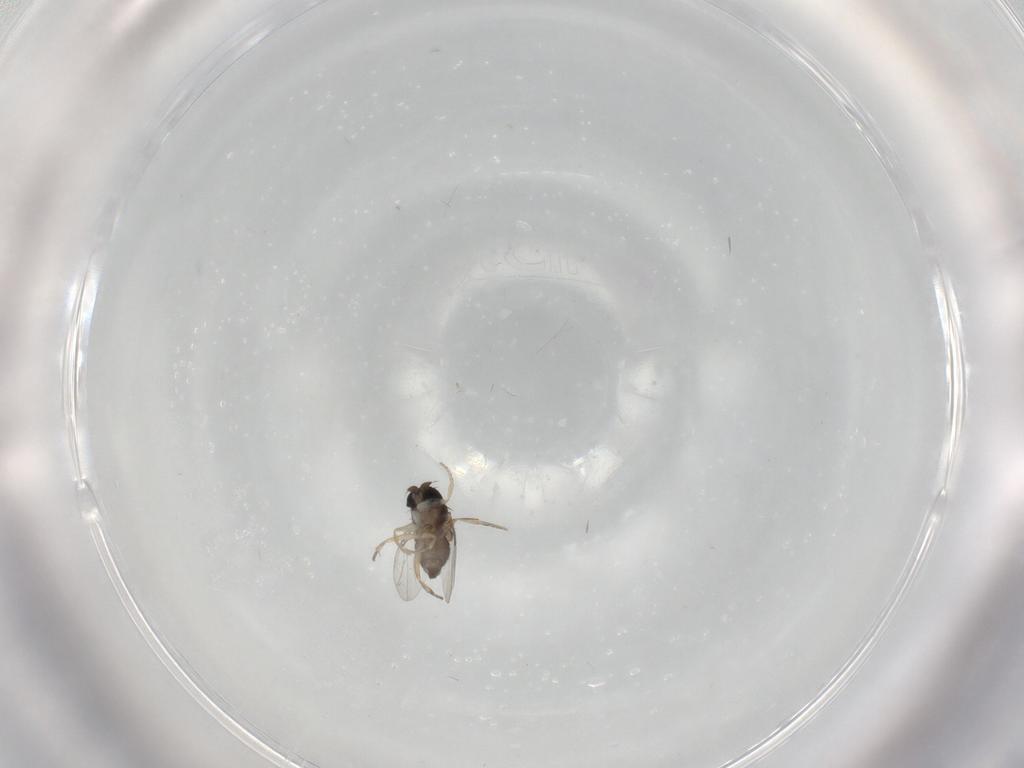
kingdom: Animalia
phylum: Arthropoda
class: Insecta
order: Diptera
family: Phoridae
